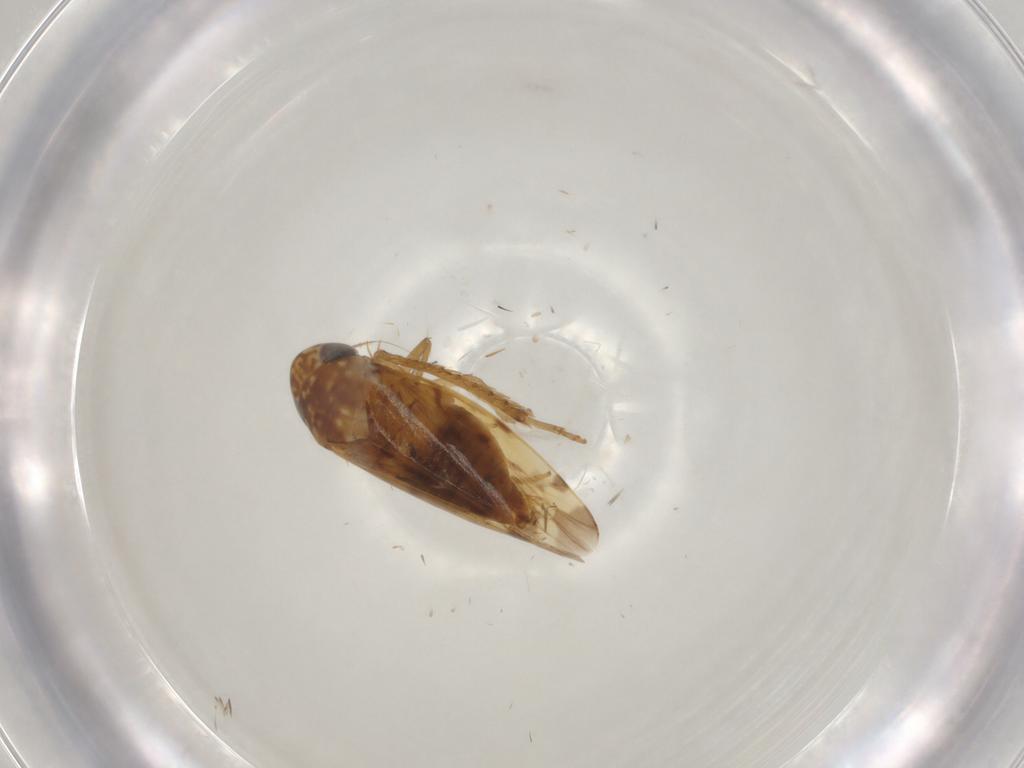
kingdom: Animalia
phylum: Arthropoda
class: Insecta
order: Hemiptera
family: Cicadellidae
